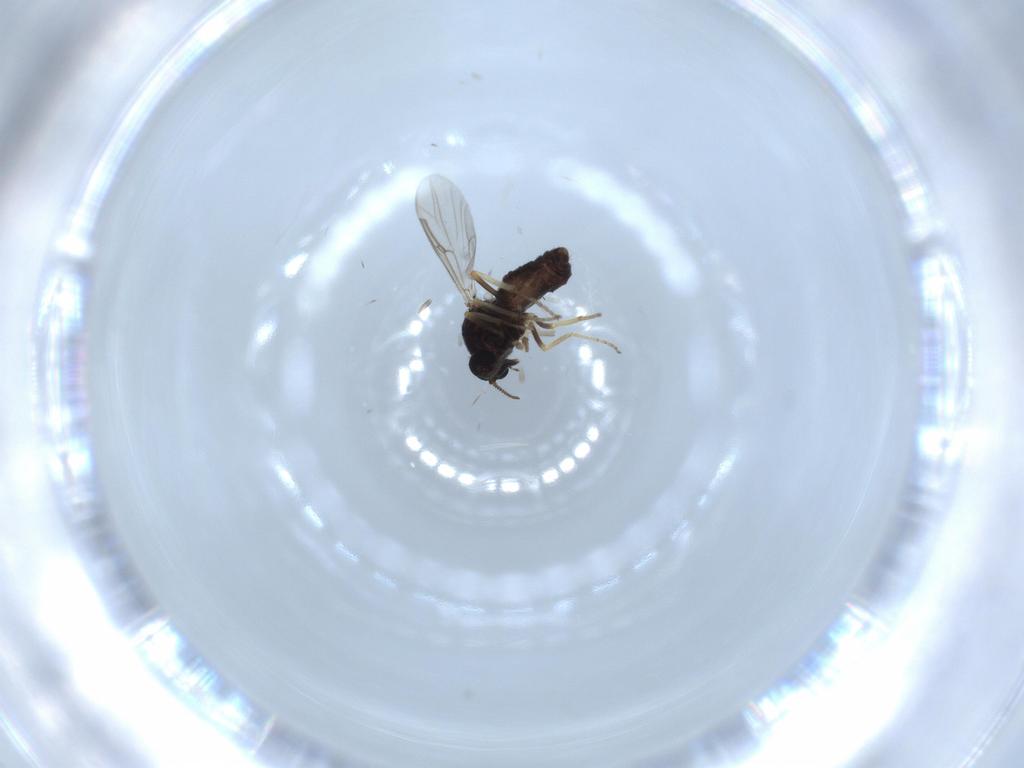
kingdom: Animalia
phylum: Arthropoda
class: Insecta
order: Diptera
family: Ceratopogonidae
